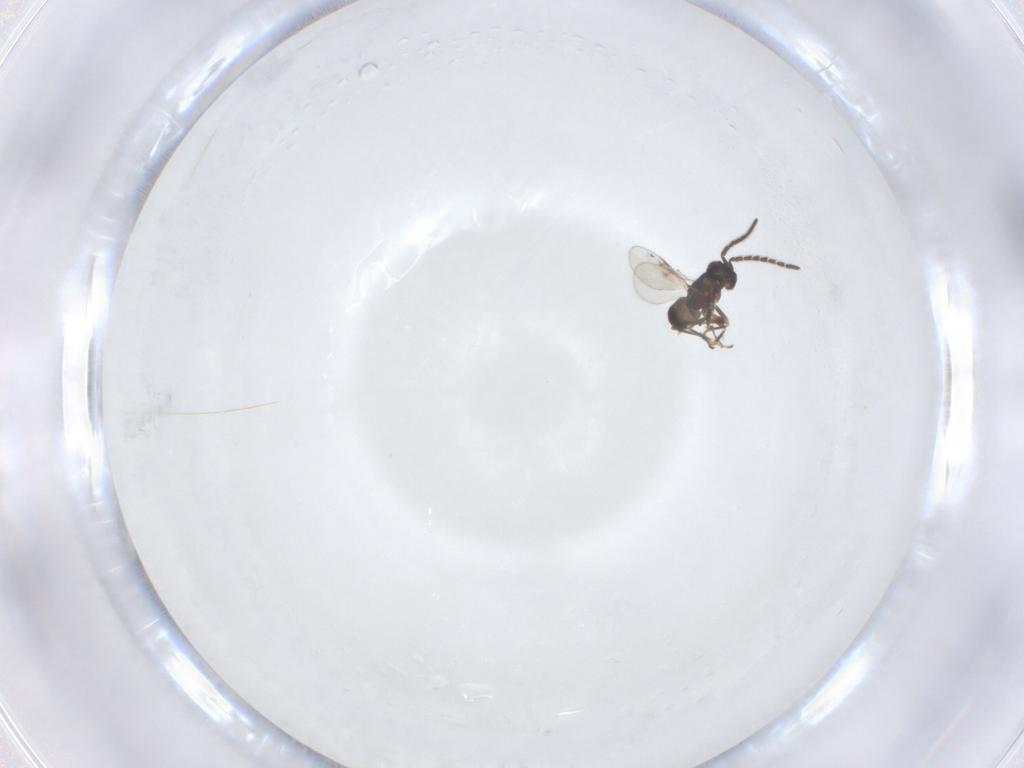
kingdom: Animalia
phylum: Arthropoda
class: Insecta
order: Hymenoptera
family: Encyrtidae
